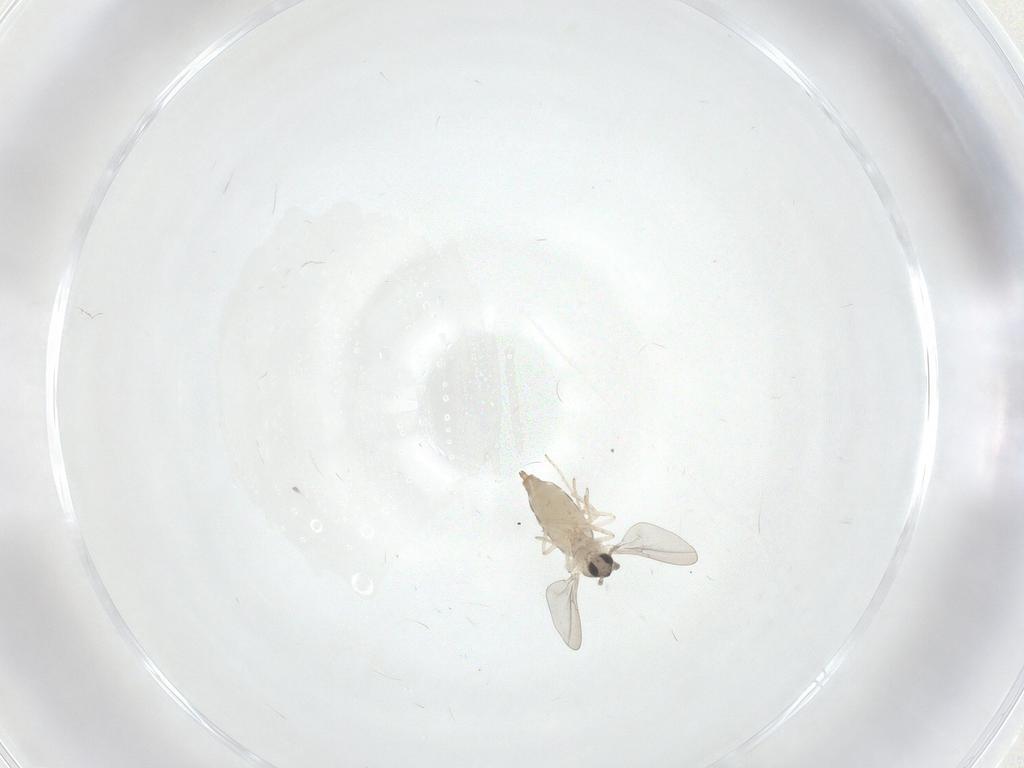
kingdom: Animalia
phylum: Arthropoda
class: Insecta
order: Diptera
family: Cecidomyiidae
